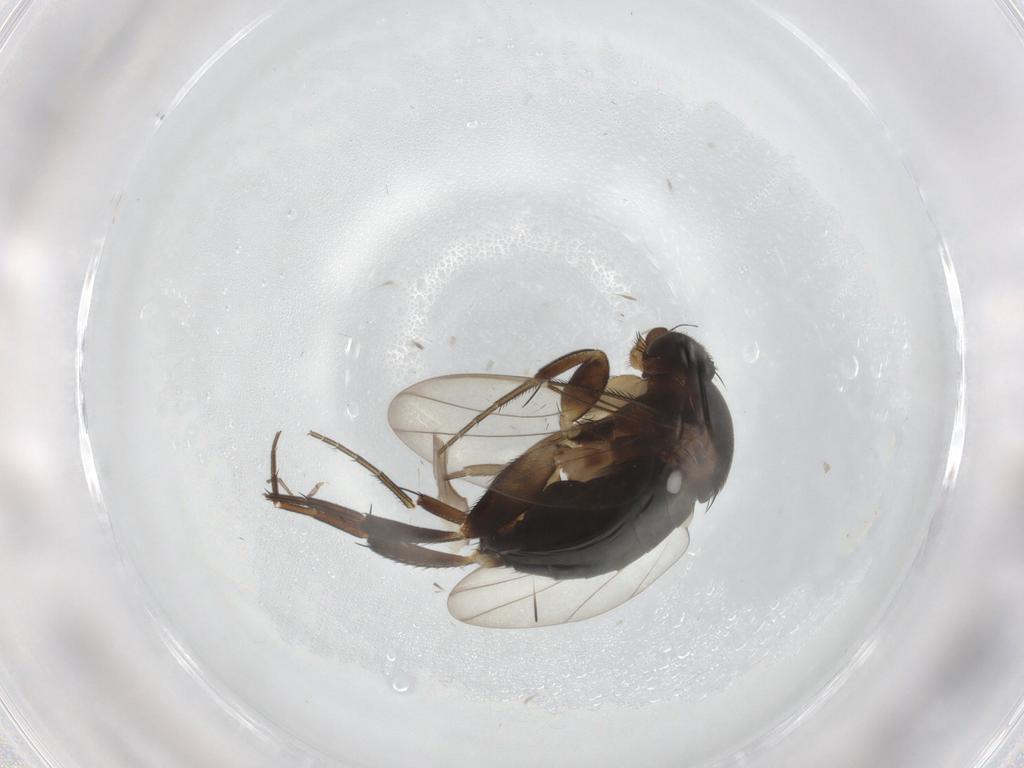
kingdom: Animalia
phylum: Arthropoda
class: Insecta
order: Diptera
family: Phoridae
